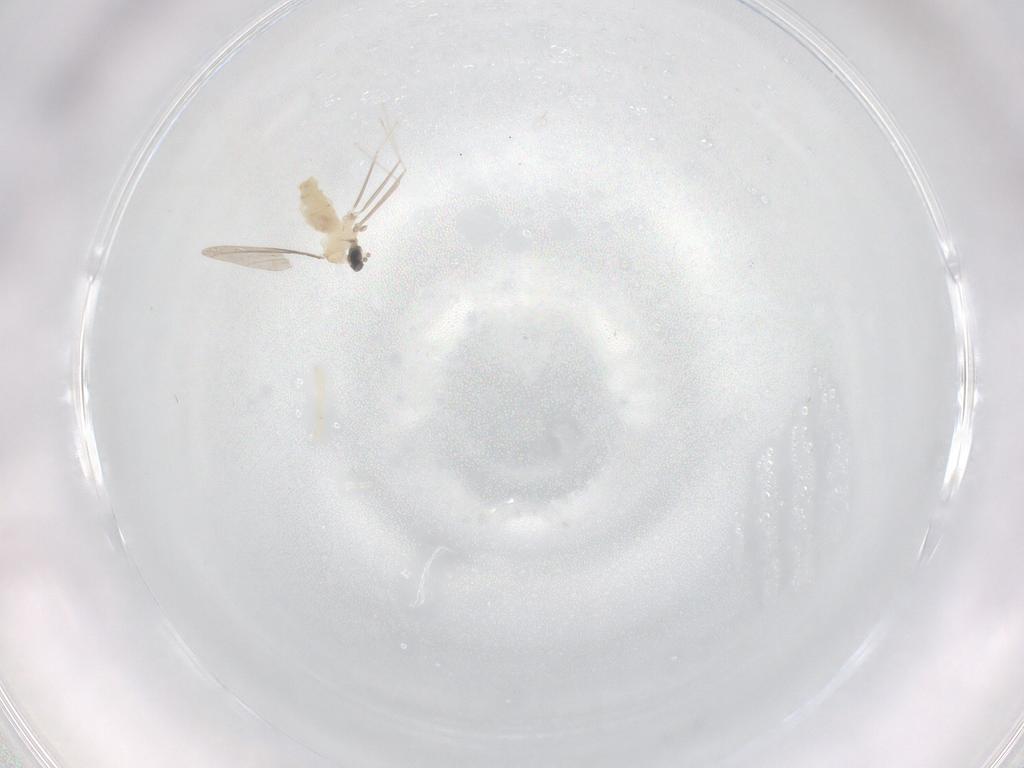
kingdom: Animalia
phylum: Arthropoda
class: Insecta
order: Diptera
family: Cecidomyiidae
